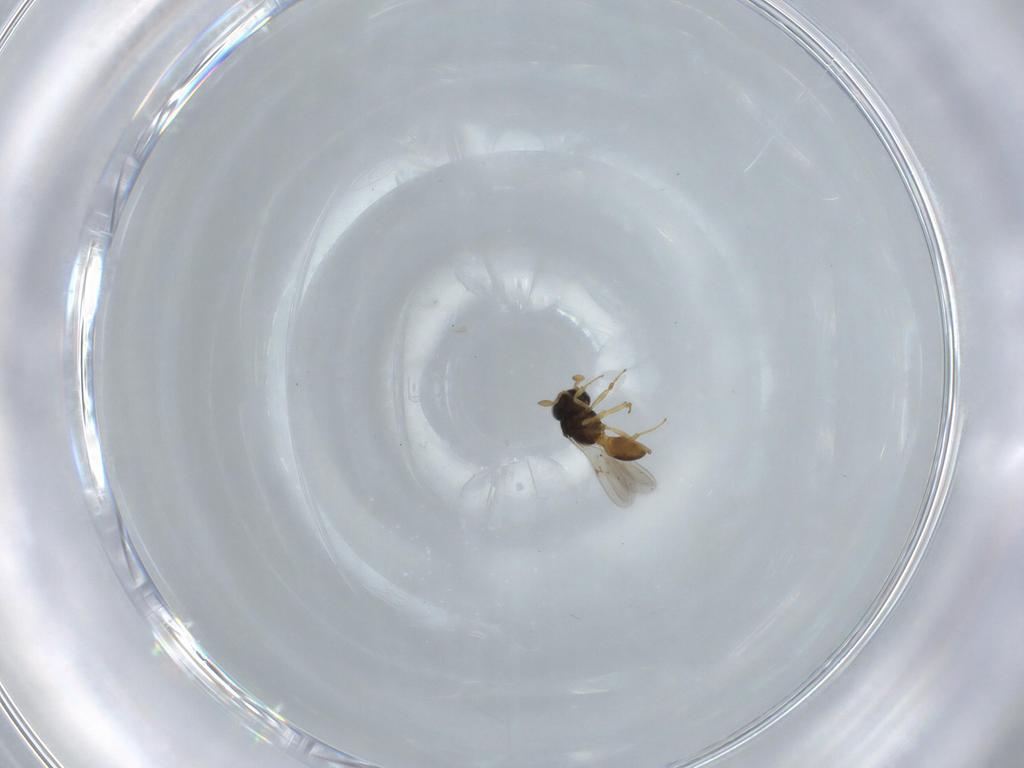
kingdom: Animalia
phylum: Arthropoda
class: Insecta
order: Hymenoptera
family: Scelionidae
